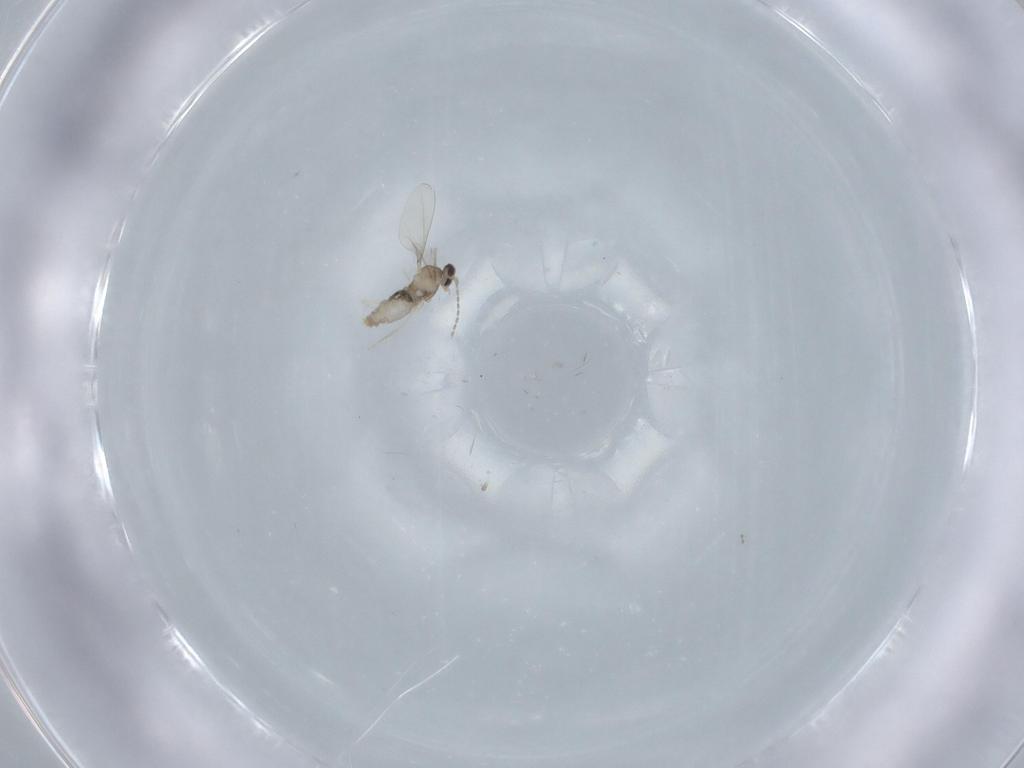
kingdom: Animalia
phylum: Arthropoda
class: Insecta
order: Diptera
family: Cecidomyiidae
